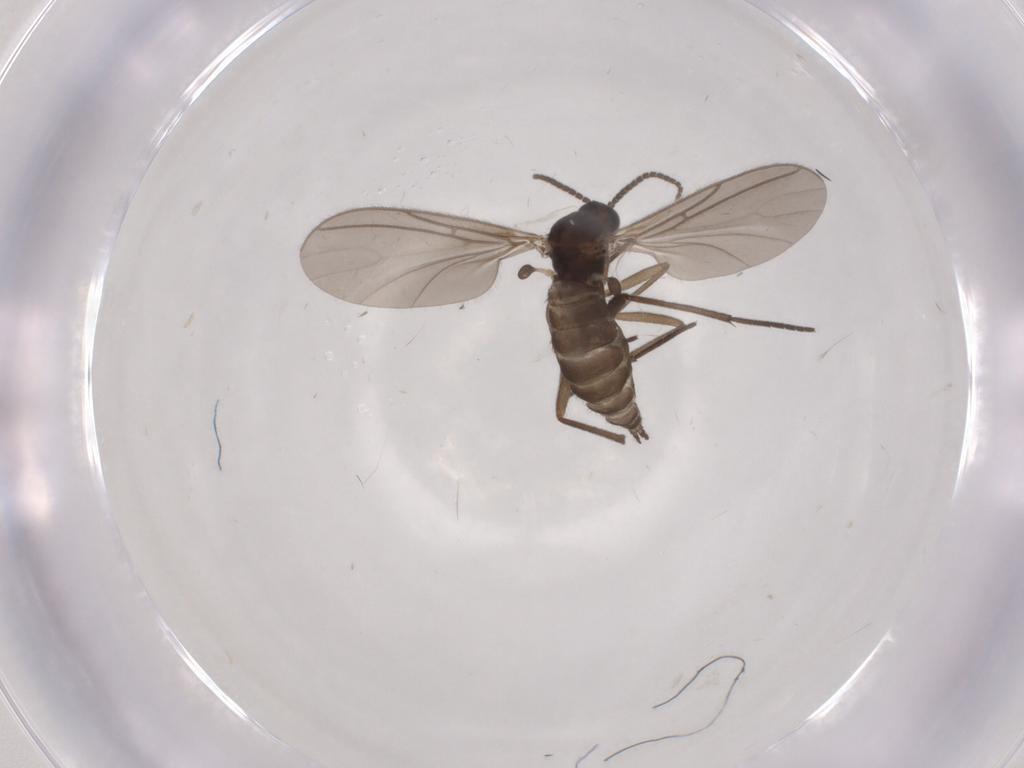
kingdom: Animalia
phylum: Arthropoda
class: Insecta
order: Diptera
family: Sciaridae
